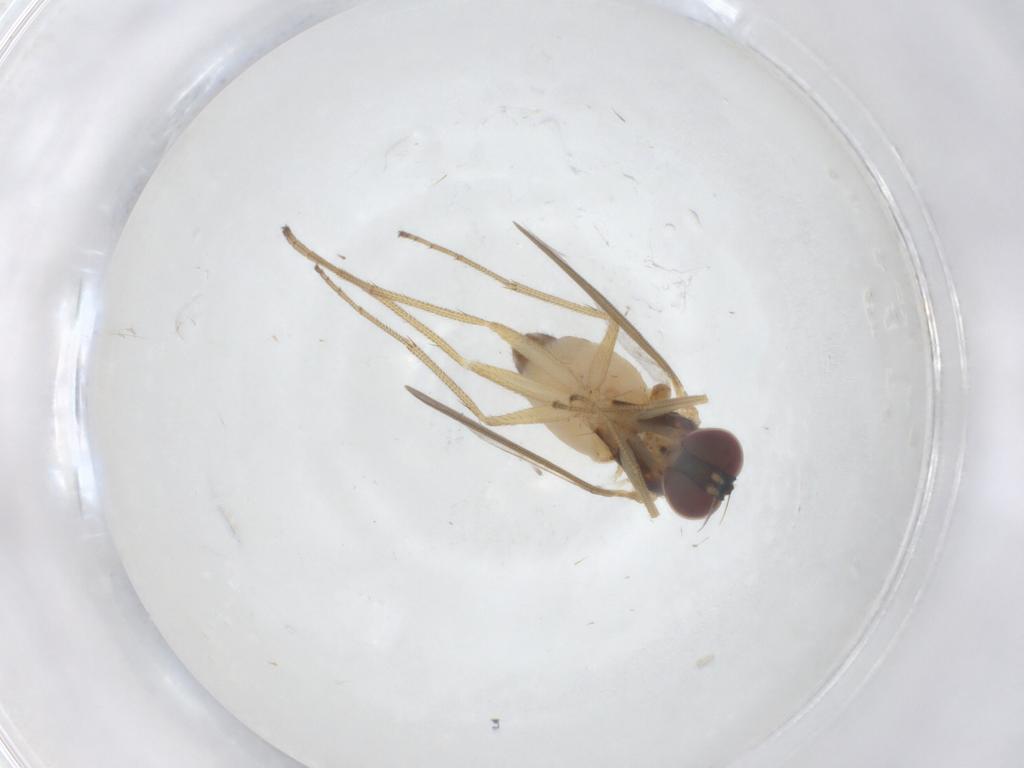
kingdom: Animalia
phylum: Arthropoda
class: Insecta
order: Diptera
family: Dolichopodidae
